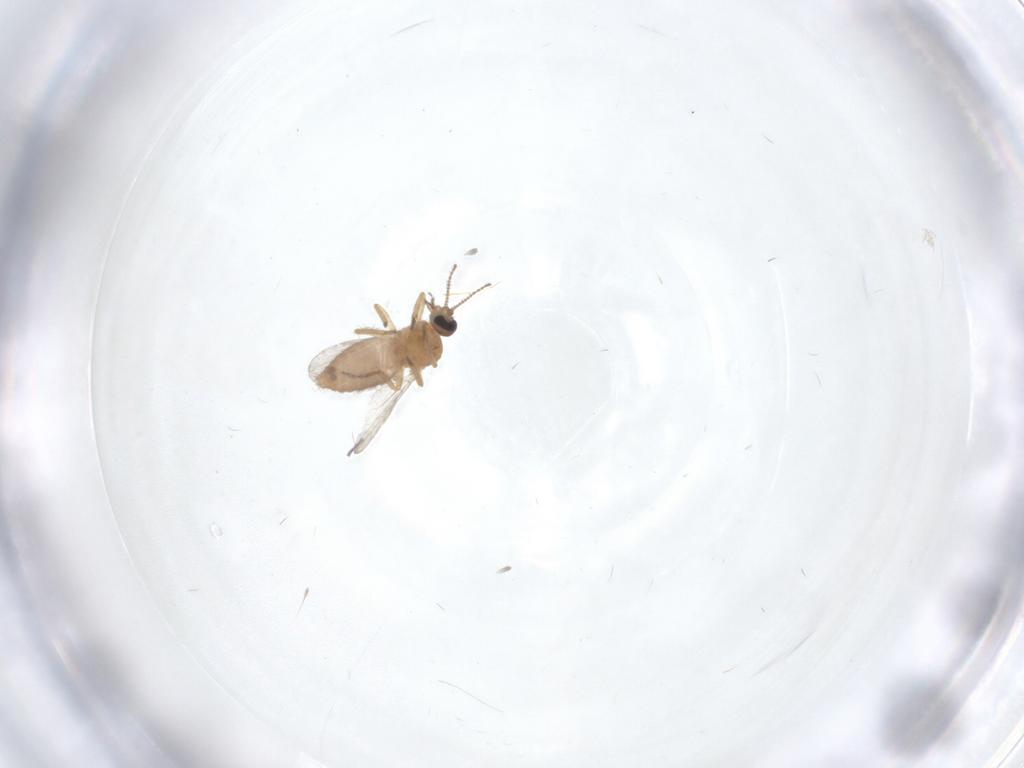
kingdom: Animalia
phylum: Arthropoda
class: Insecta
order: Diptera
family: Ceratopogonidae
